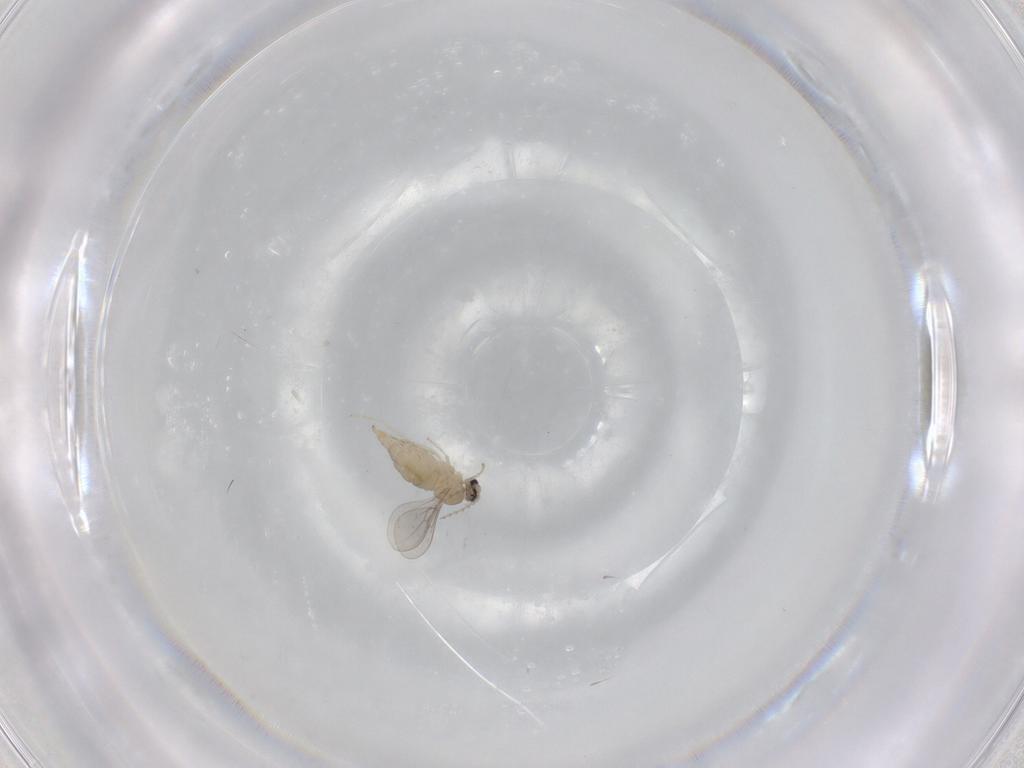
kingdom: Animalia
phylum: Arthropoda
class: Insecta
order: Diptera
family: Cecidomyiidae
